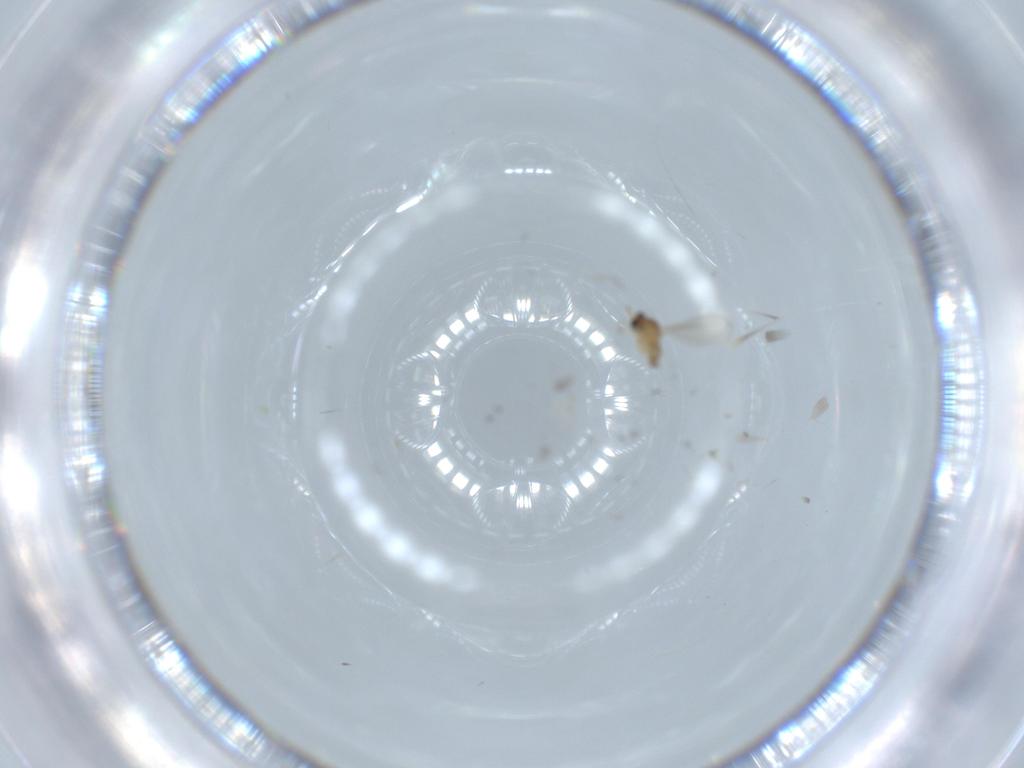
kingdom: Animalia
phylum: Arthropoda
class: Insecta
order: Diptera
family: Cecidomyiidae
